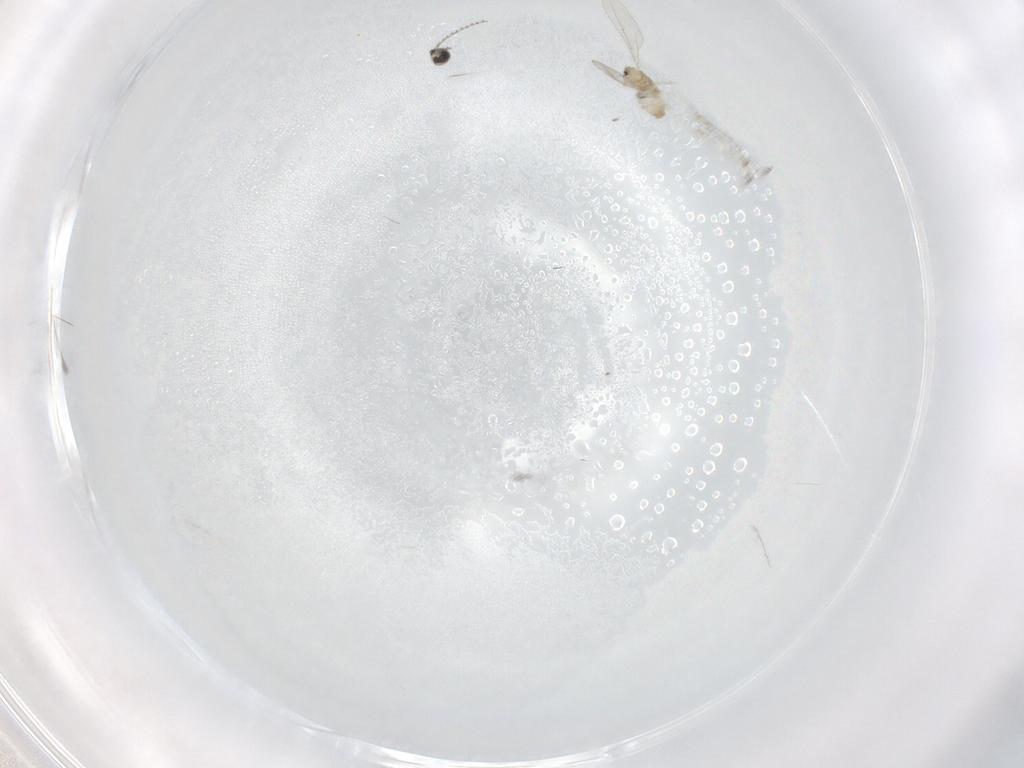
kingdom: Animalia
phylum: Arthropoda
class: Insecta
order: Diptera
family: Cecidomyiidae
